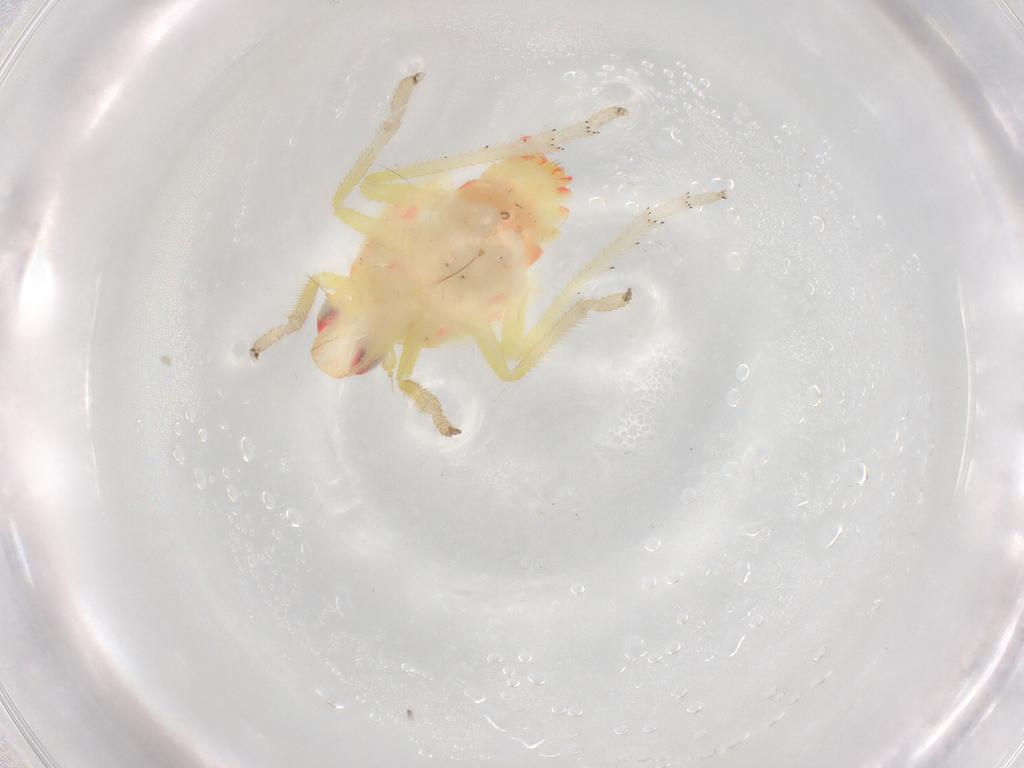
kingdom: Animalia
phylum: Arthropoda
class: Insecta
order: Hemiptera
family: Tropiduchidae
